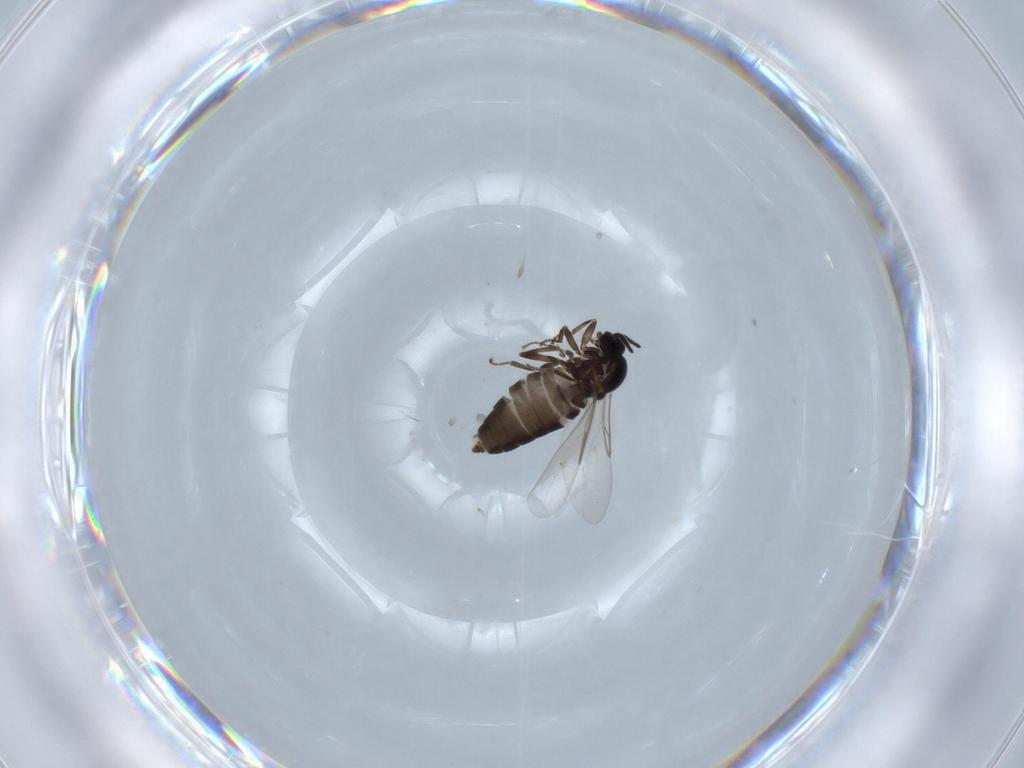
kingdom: Animalia
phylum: Arthropoda
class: Insecta
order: Diptera
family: Scatopsidae
